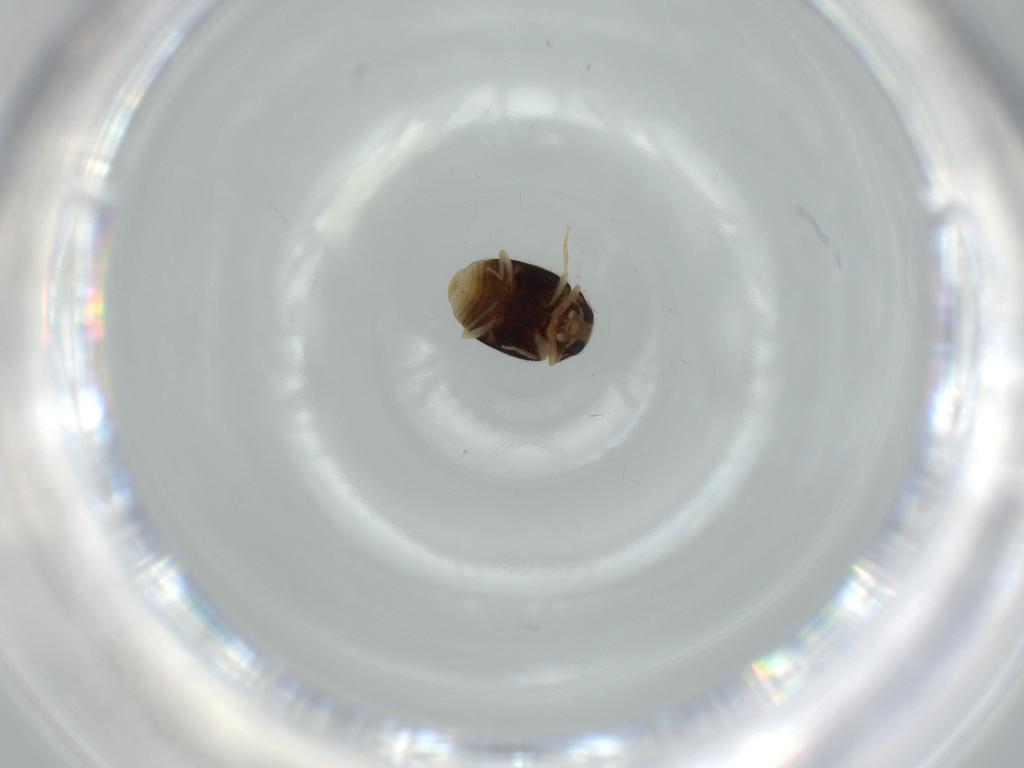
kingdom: Animalia
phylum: Arthropoda
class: Insecta
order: Coleoptera
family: Coccinellidae
